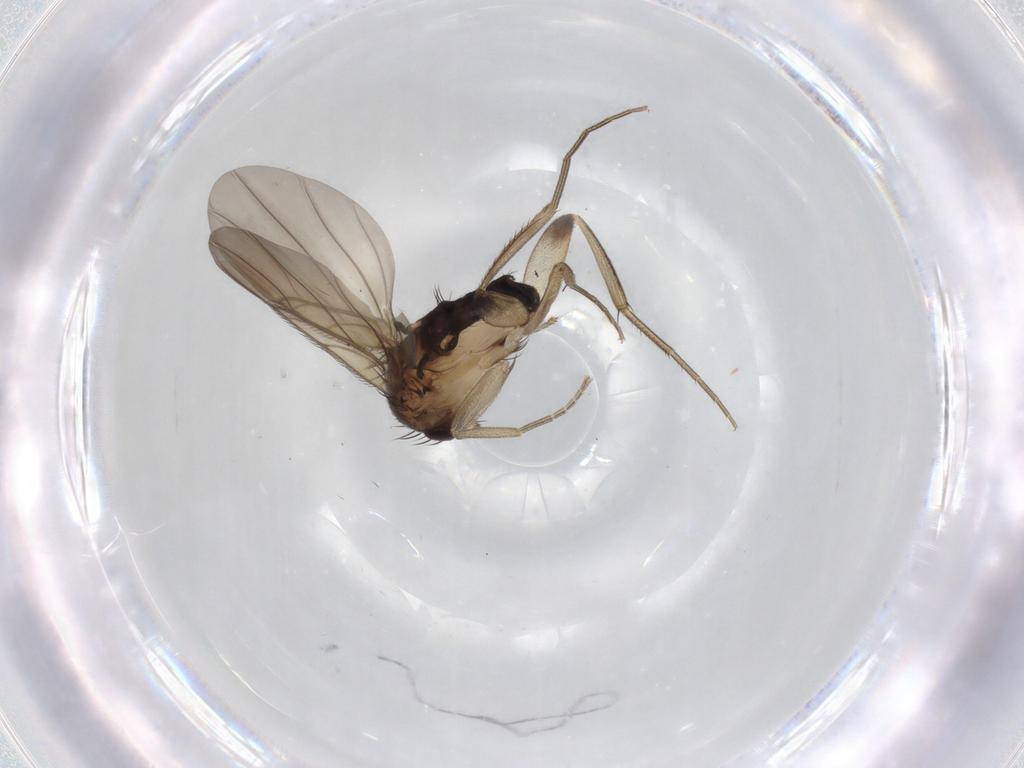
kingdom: Animalia
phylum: Arthropoda
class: Insecta
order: Diptera
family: Phoridae
